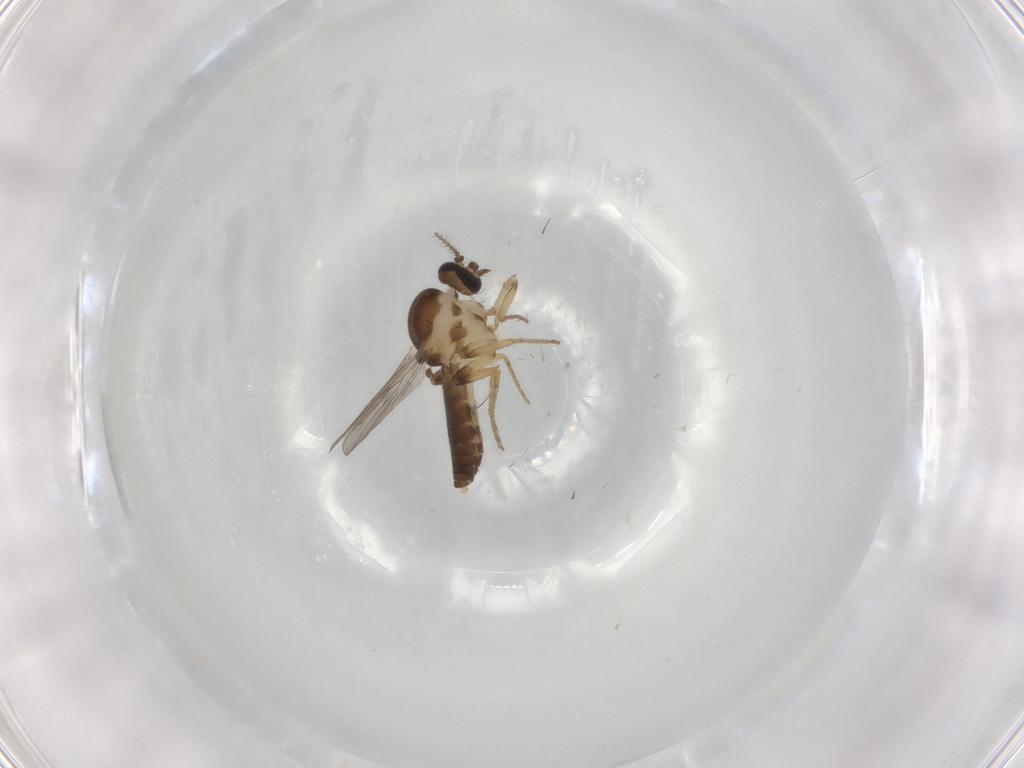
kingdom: Animalia
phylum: Arthropoda
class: Insecta
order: Diptera
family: Ceratopogonidae
